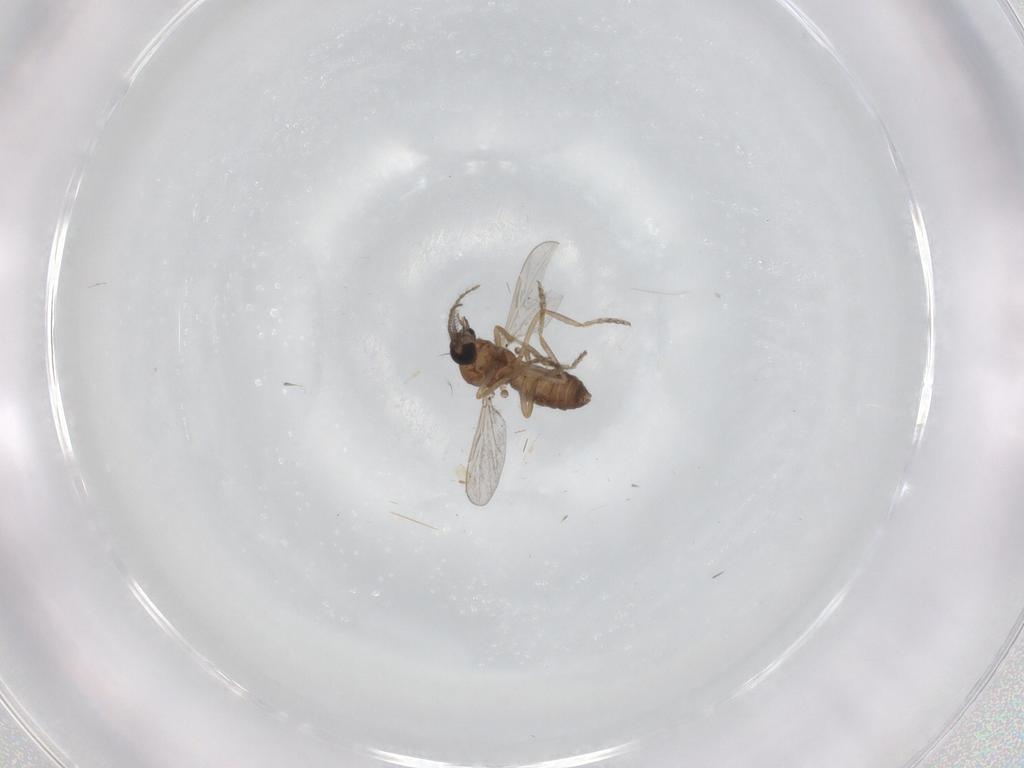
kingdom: Animalia
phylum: Arthropoda
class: Insecta
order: Diptera
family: Ceratopogonidae
